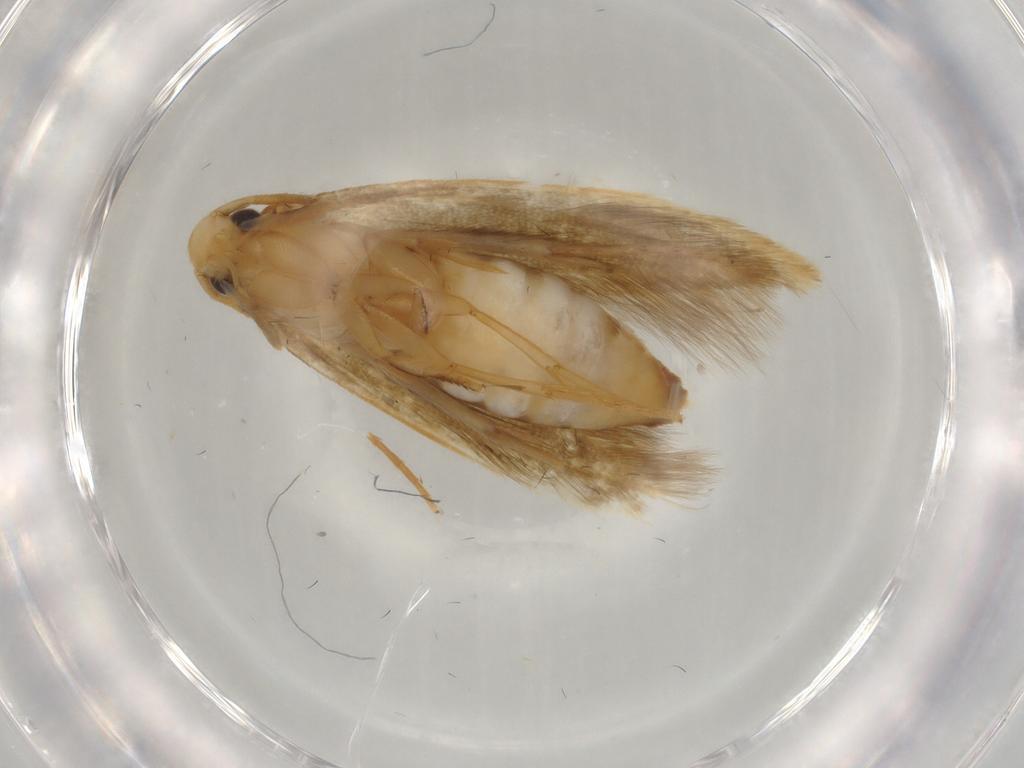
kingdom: Animalia
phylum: Arthropoda
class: Insecta
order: Lepidoptera
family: Tineidae
